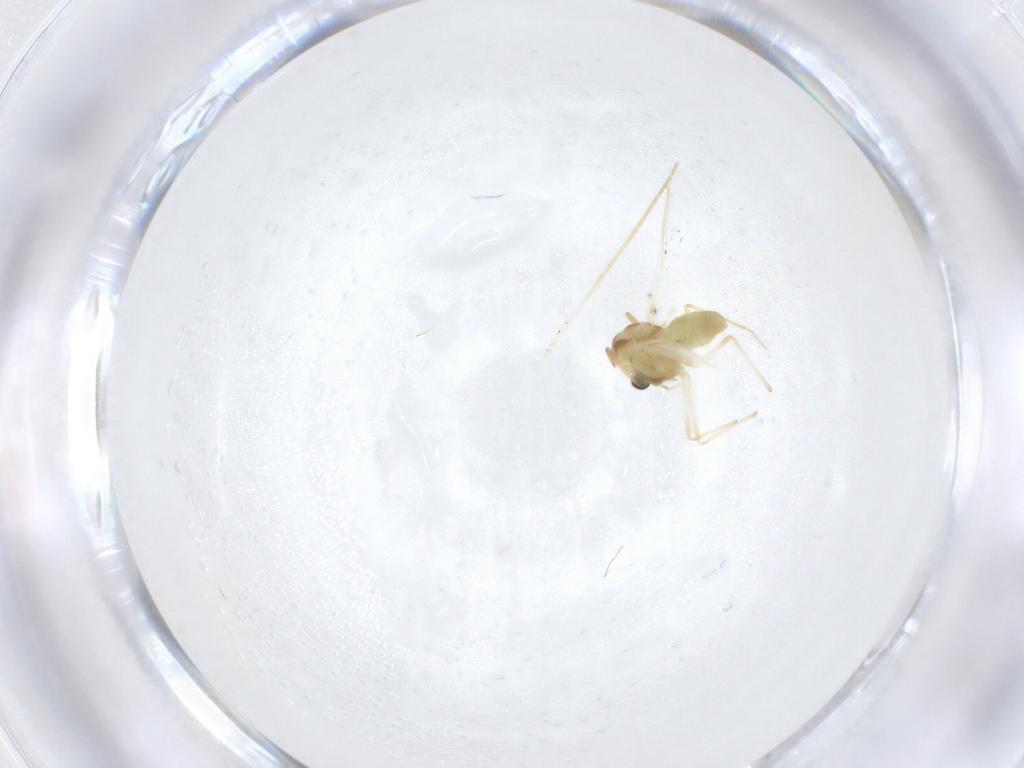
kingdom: Animalia
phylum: Arthropoda
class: Insecta
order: Diptera
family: Chironomidae
